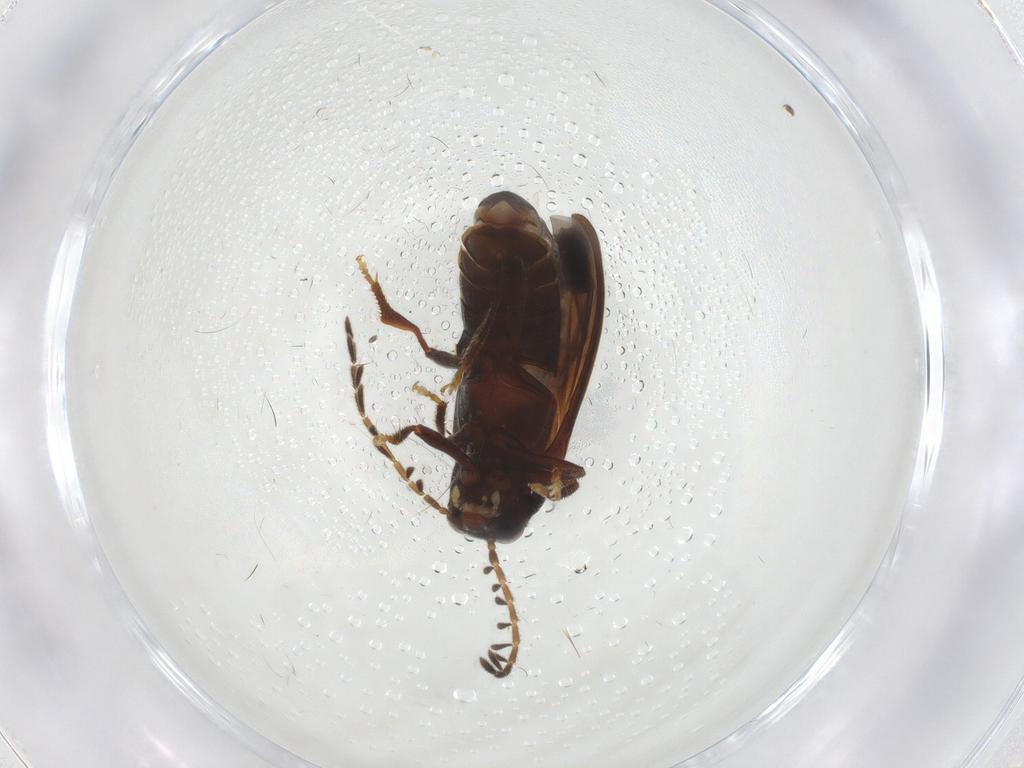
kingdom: Animalia
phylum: Arthropoda
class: Insecta
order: Coleoptera
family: Ptilodactylidae
